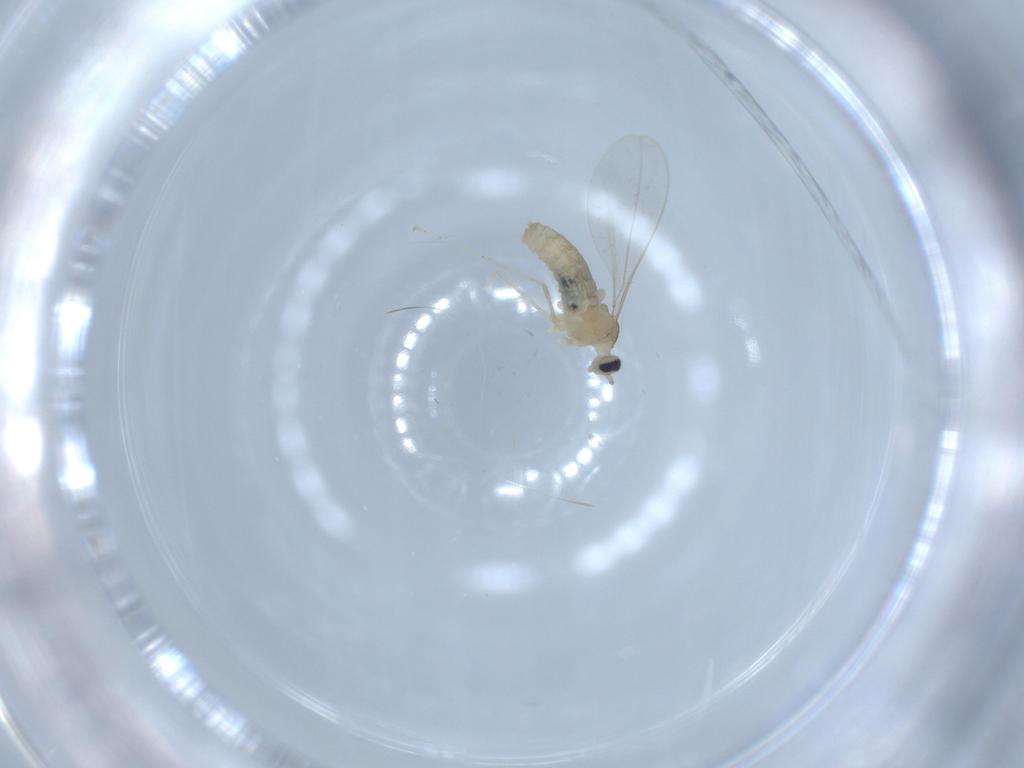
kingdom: Animalia
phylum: Arthropoda
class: Insecta
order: Diptera
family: Cecidomyiidae
